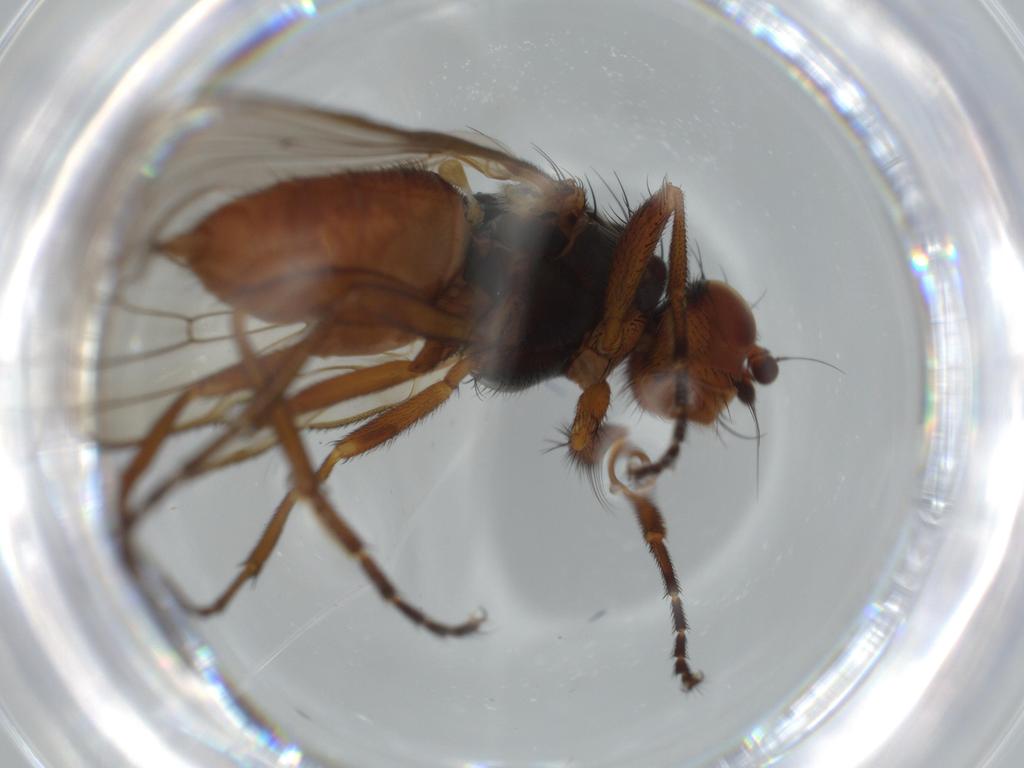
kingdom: Animalia
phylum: Arthropoda
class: Insecta
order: Diptera
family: Heleomyzidae
